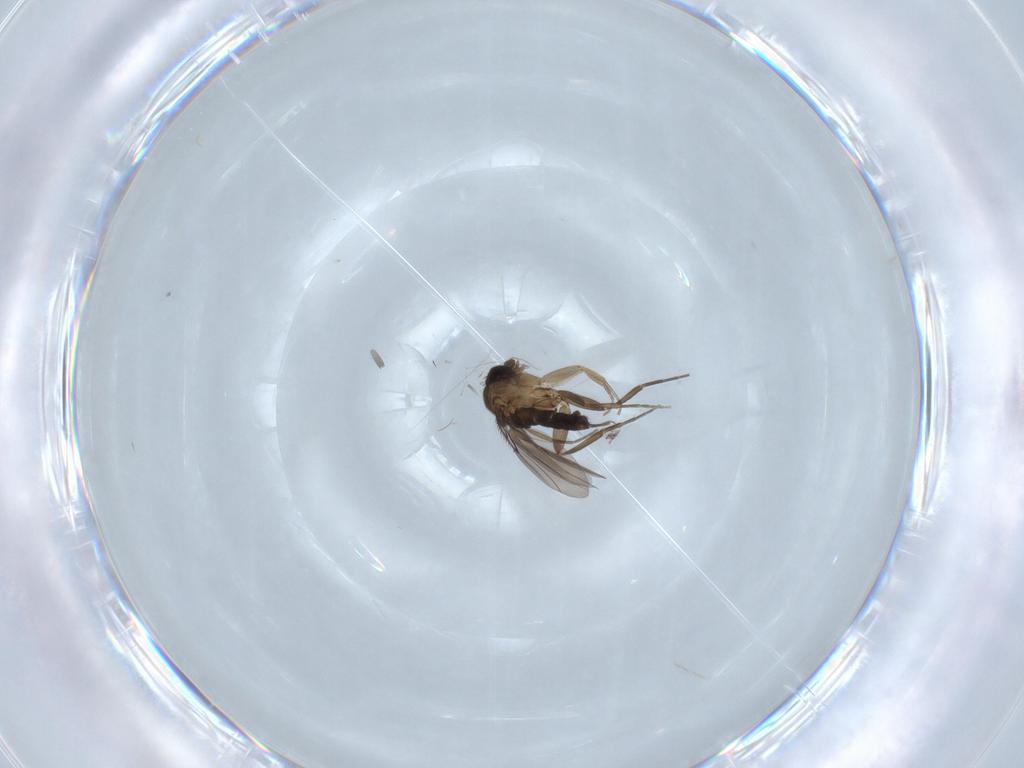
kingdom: Animalia
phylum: Arthropoda
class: Insecta
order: Diptera
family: Phoridae
